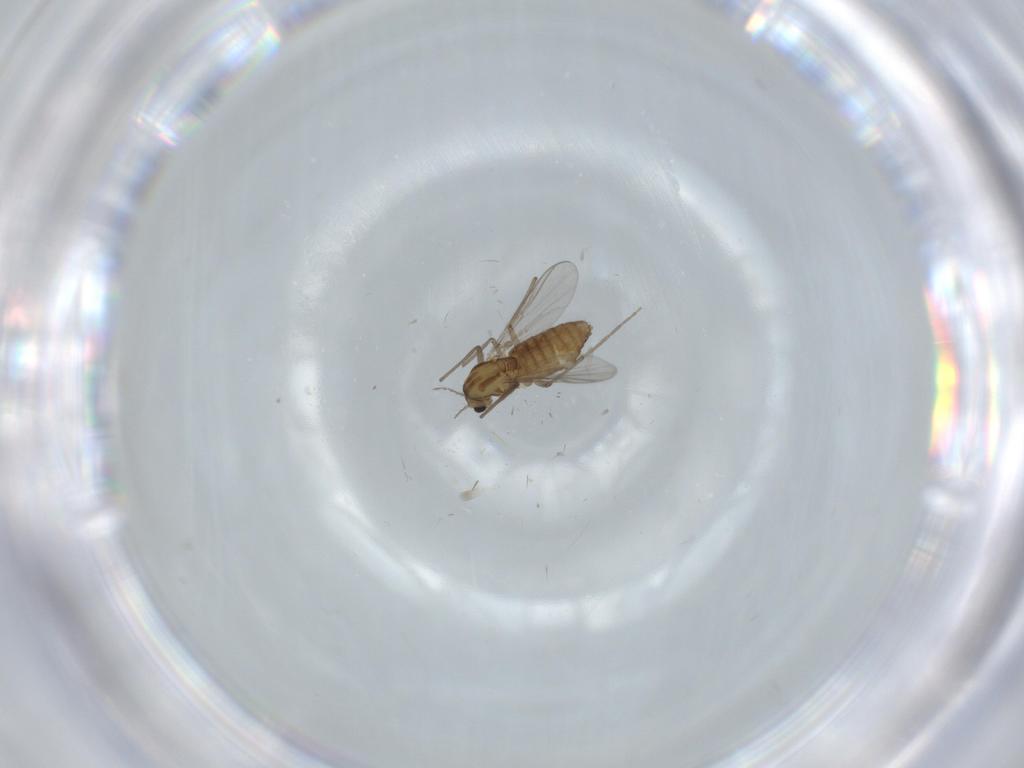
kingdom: Animalia
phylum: Arthropoda
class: Insecta
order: Diptera
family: Chironomidae
